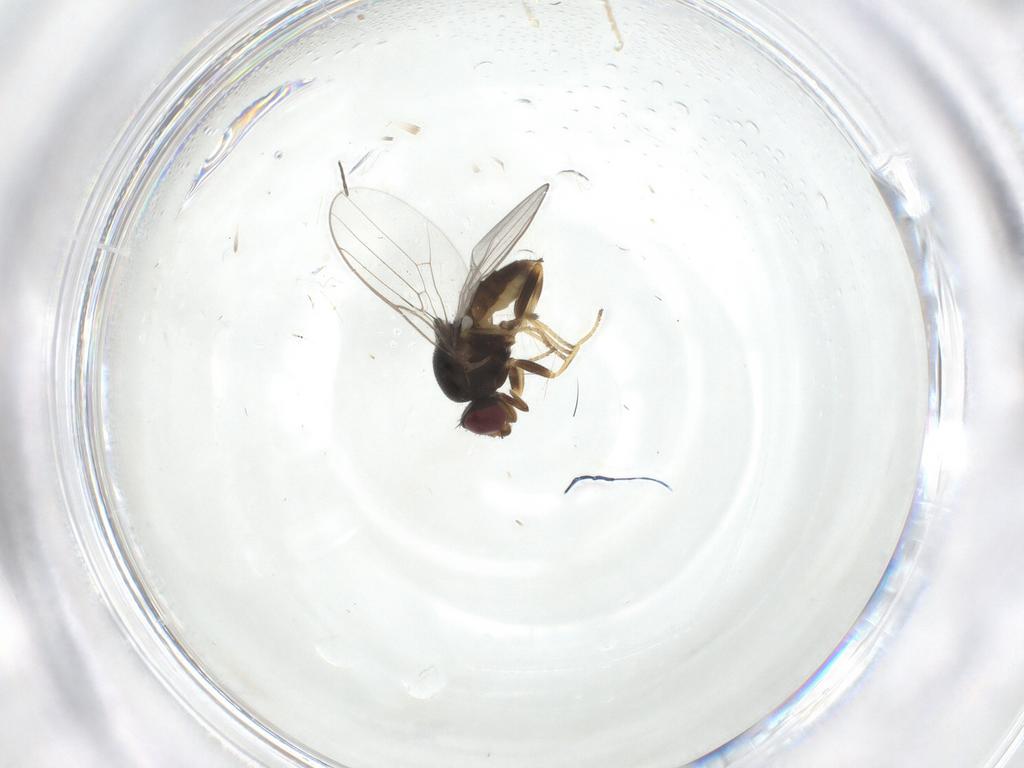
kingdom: Animalia
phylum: Arthropoda
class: Insecta
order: Diptera
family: Chloropidae
